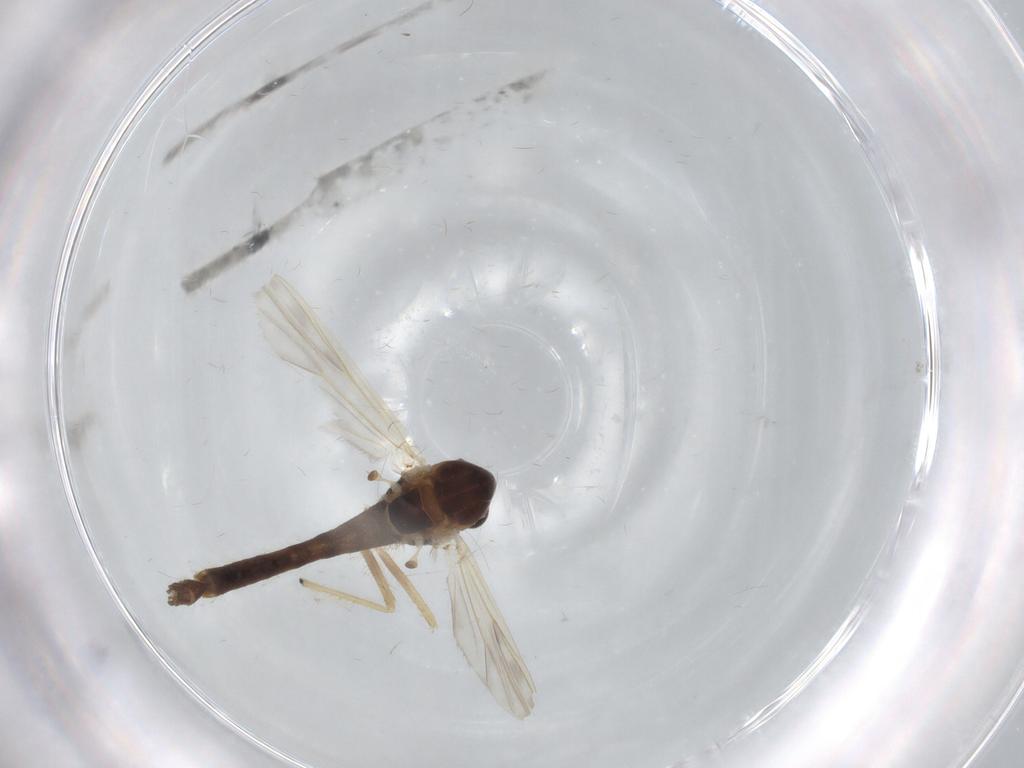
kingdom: Animalia
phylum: Arthropoda
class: Insecta
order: Diptera
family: Chironomidae
